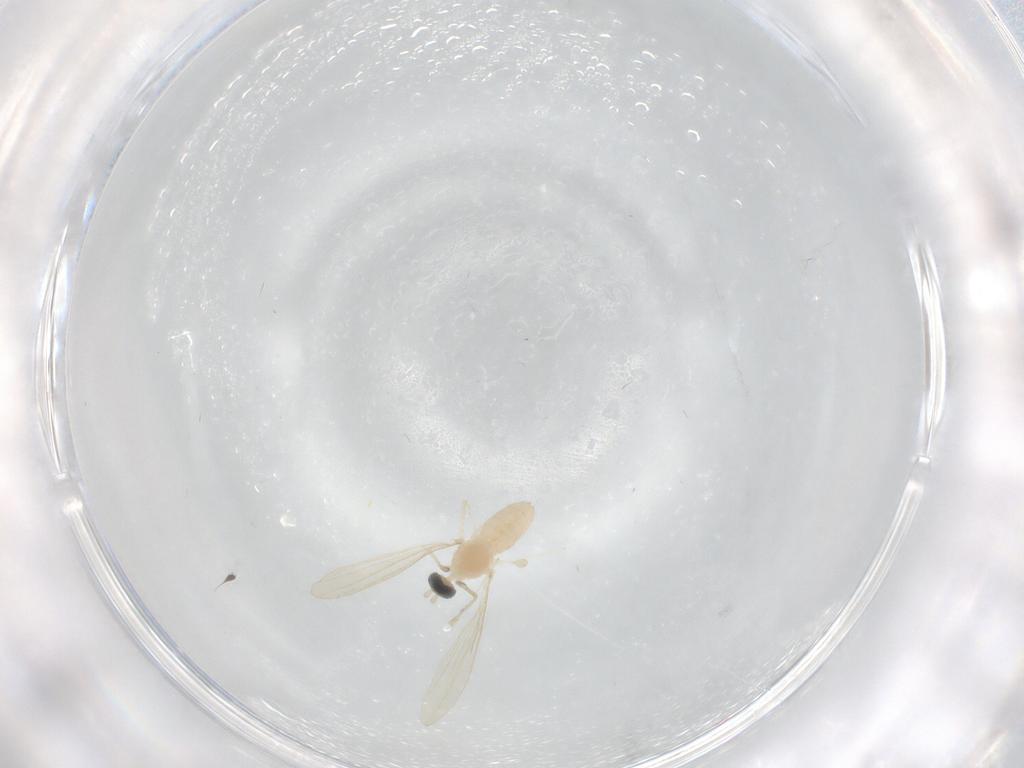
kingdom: Animalia
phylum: Arthropoda
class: Insecta
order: Diptera
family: Cecidomyiidae
